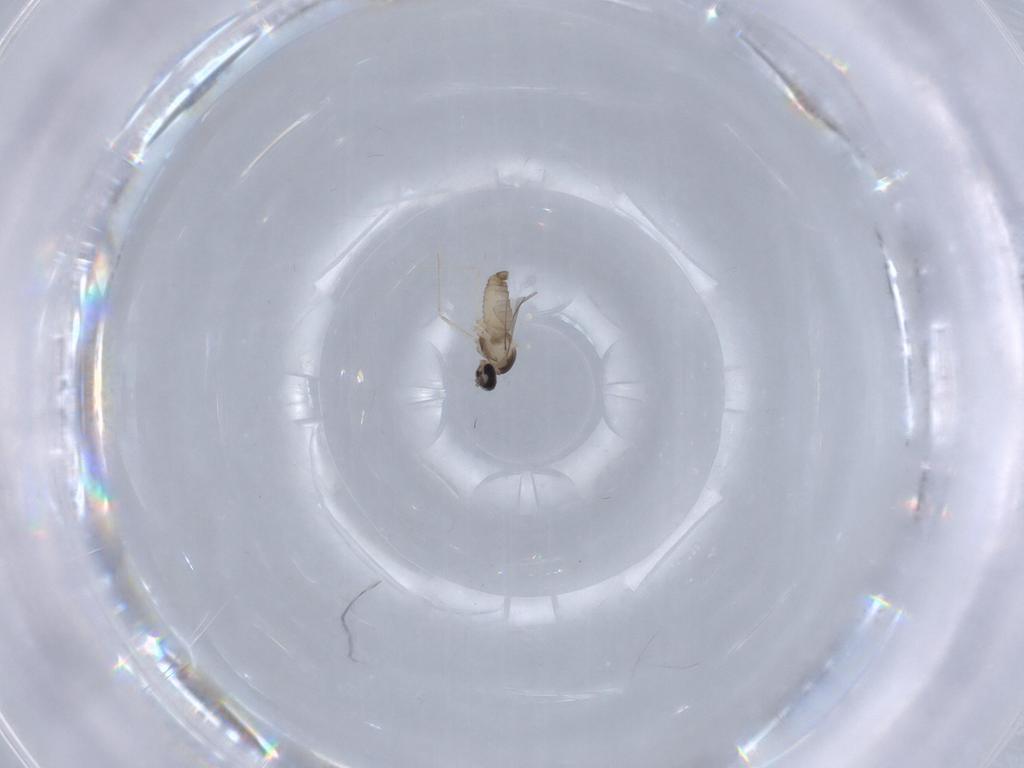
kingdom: Animalia
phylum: Arthropoda
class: Insecta
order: Diptera
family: Cecidomyiidae
